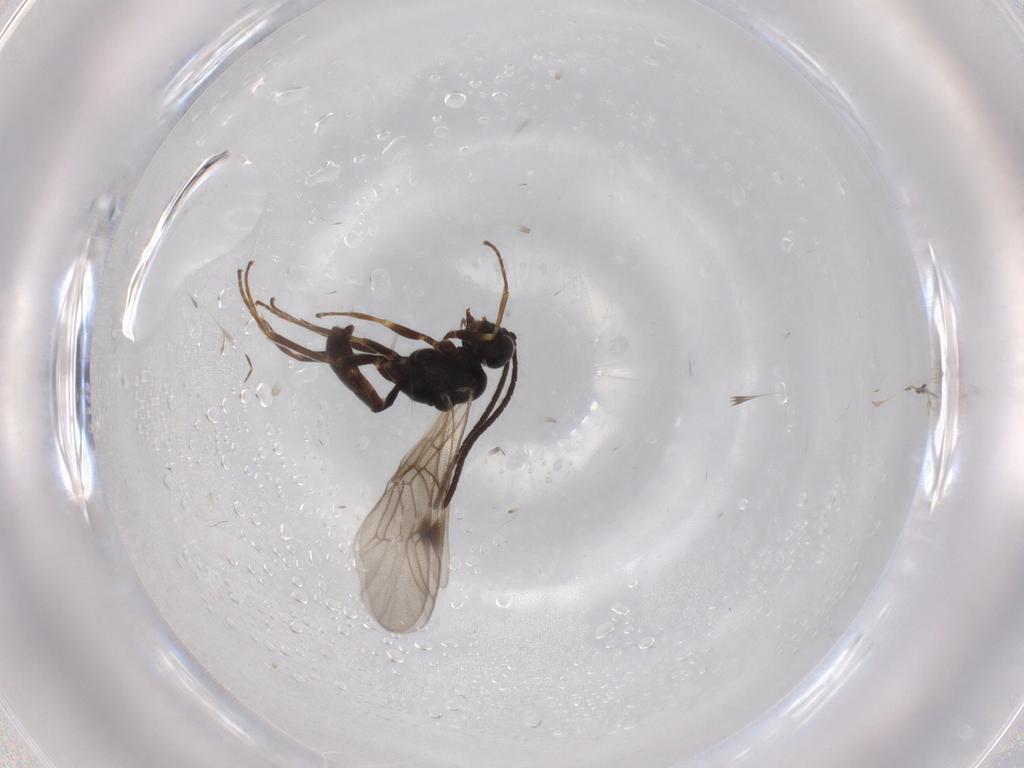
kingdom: Animalia
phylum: Arthropoda
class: Insecta
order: Hymenoptera
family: Ichneumonidae
